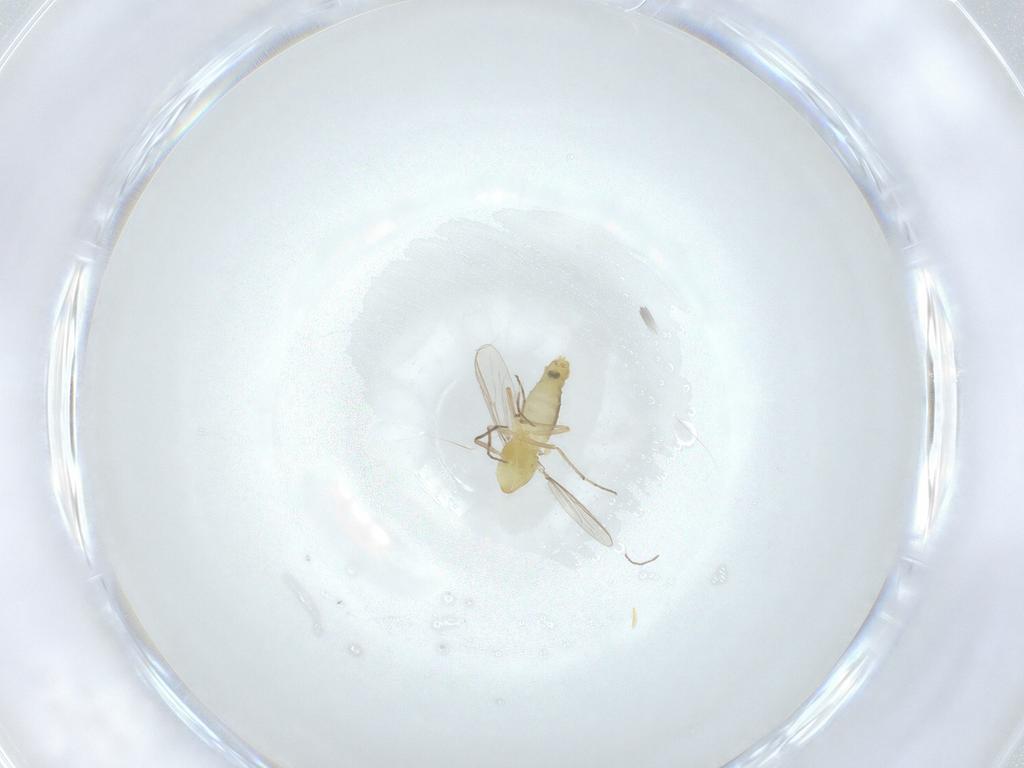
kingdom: Animalia
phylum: Arthropoda
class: Insecta
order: Diptera
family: Chironomidae
